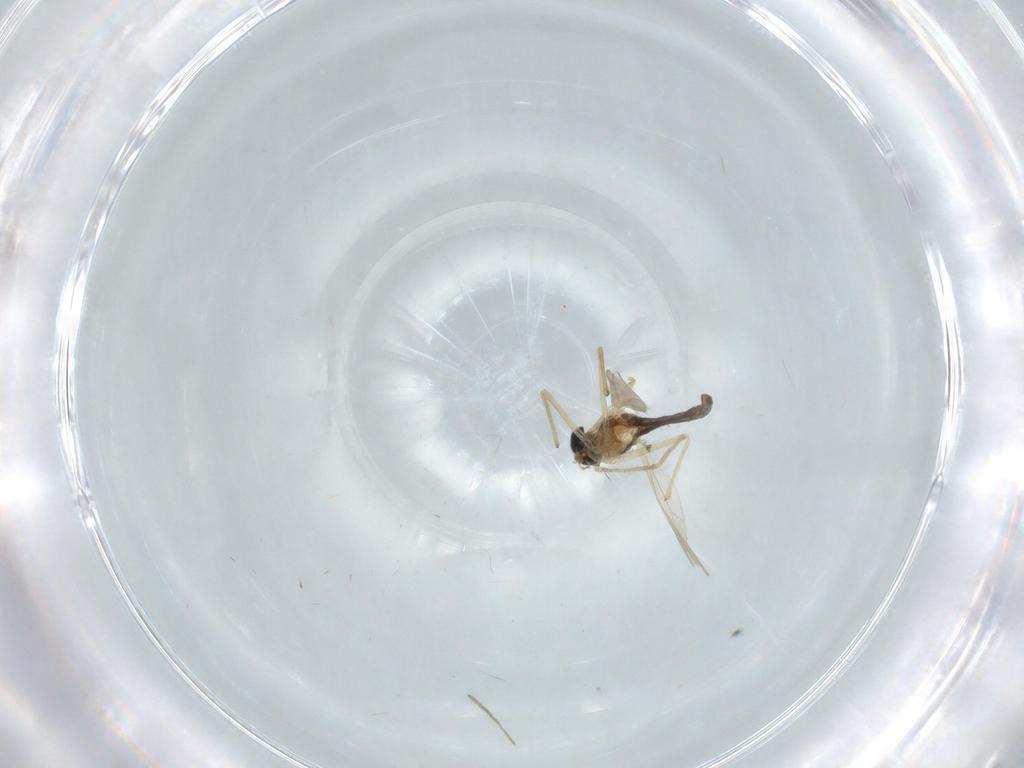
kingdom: Animalia
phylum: Arthropoda
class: Insecta
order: Diptera
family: Chironomidae
